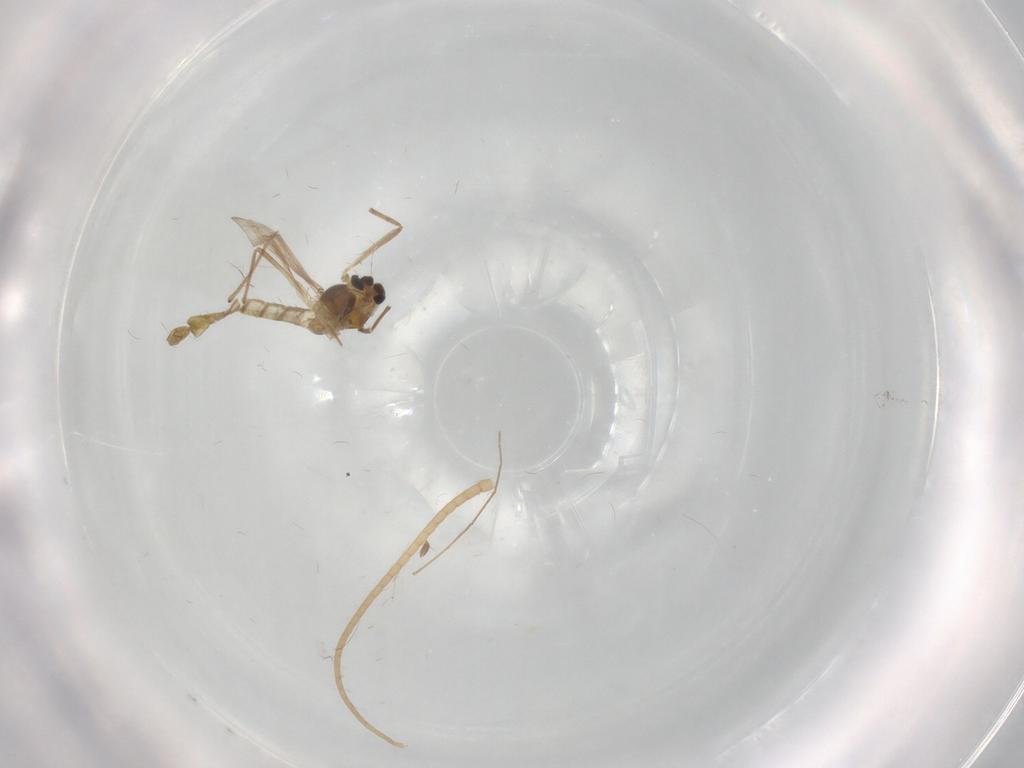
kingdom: Animalia
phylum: Arthropoda
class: Insecta
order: Diptera
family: Chironomidae
